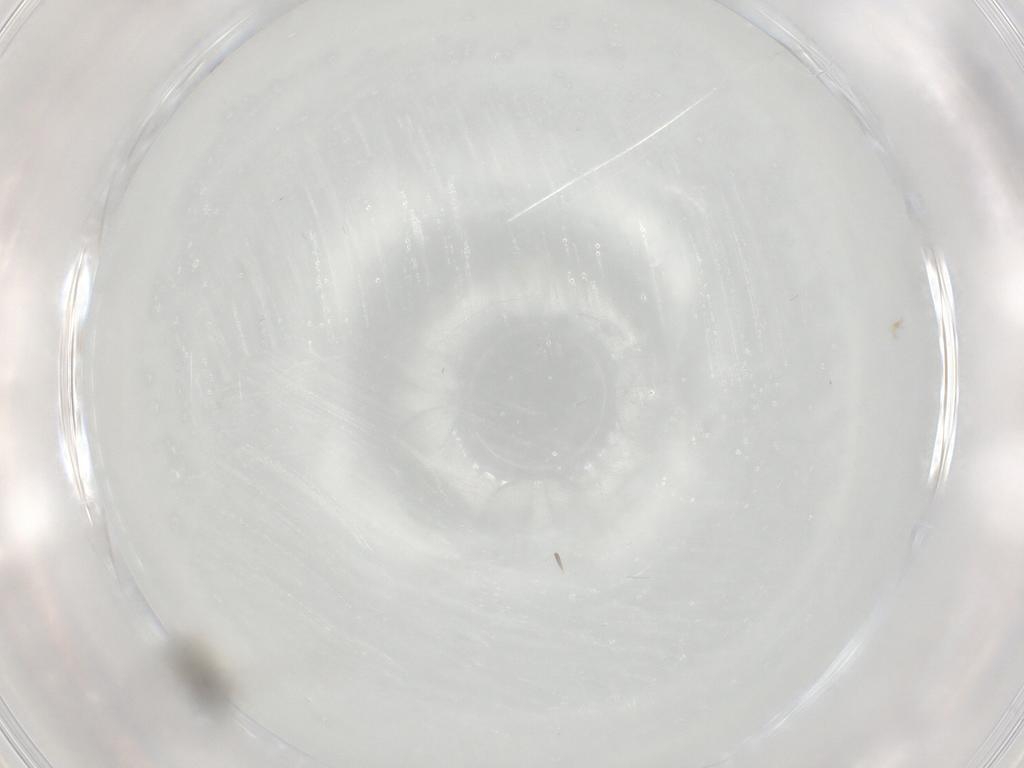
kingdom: Animalia
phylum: Arthropoda
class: Insecta
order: Diptera
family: Cecidomyiidae
